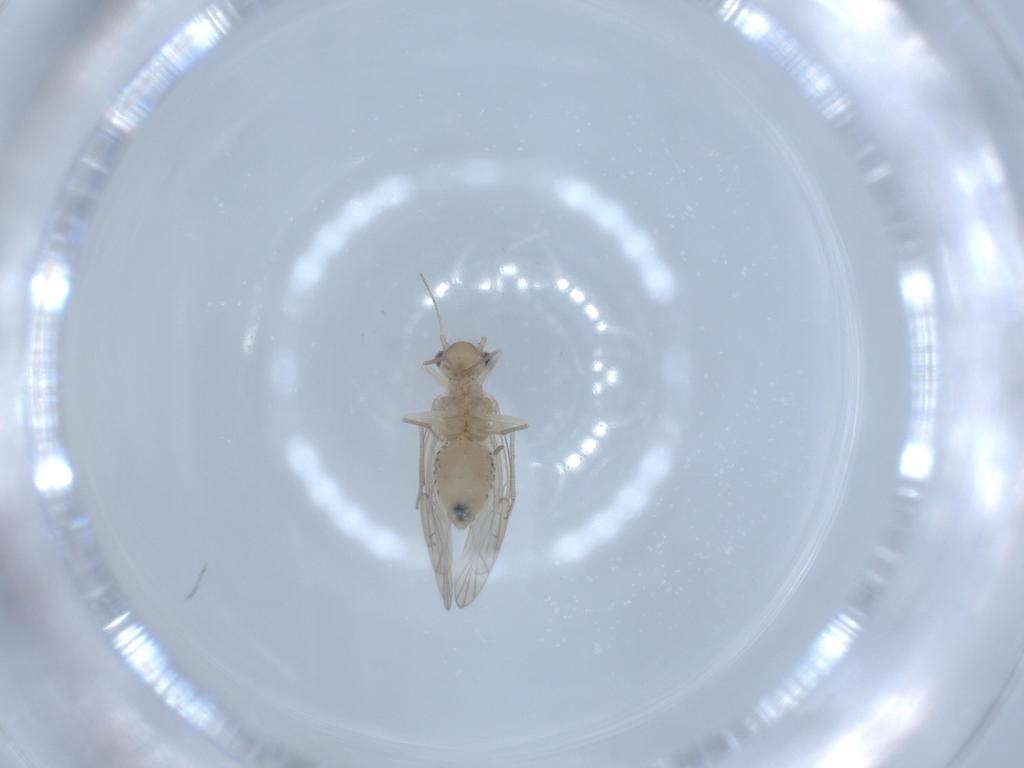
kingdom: Animalia
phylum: Arthropoda
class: Insecta
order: Psocodea
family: Lachesillidae
